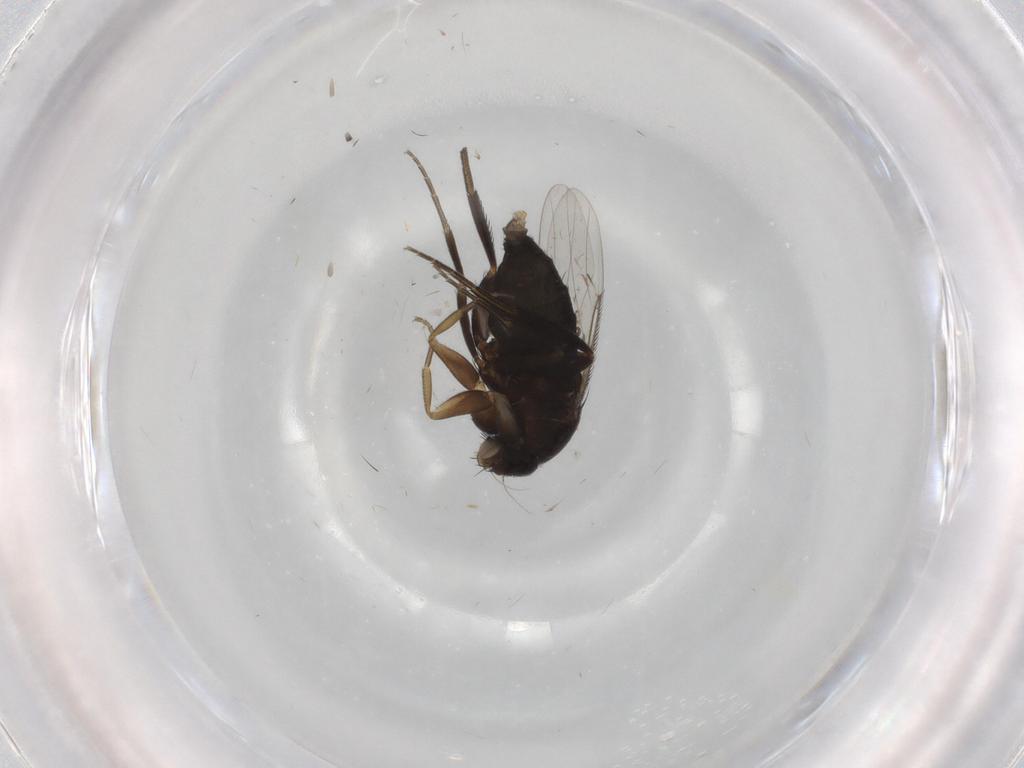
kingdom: Animalia
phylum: Arthropoda
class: Insecta
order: Diptera
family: Phoridae
